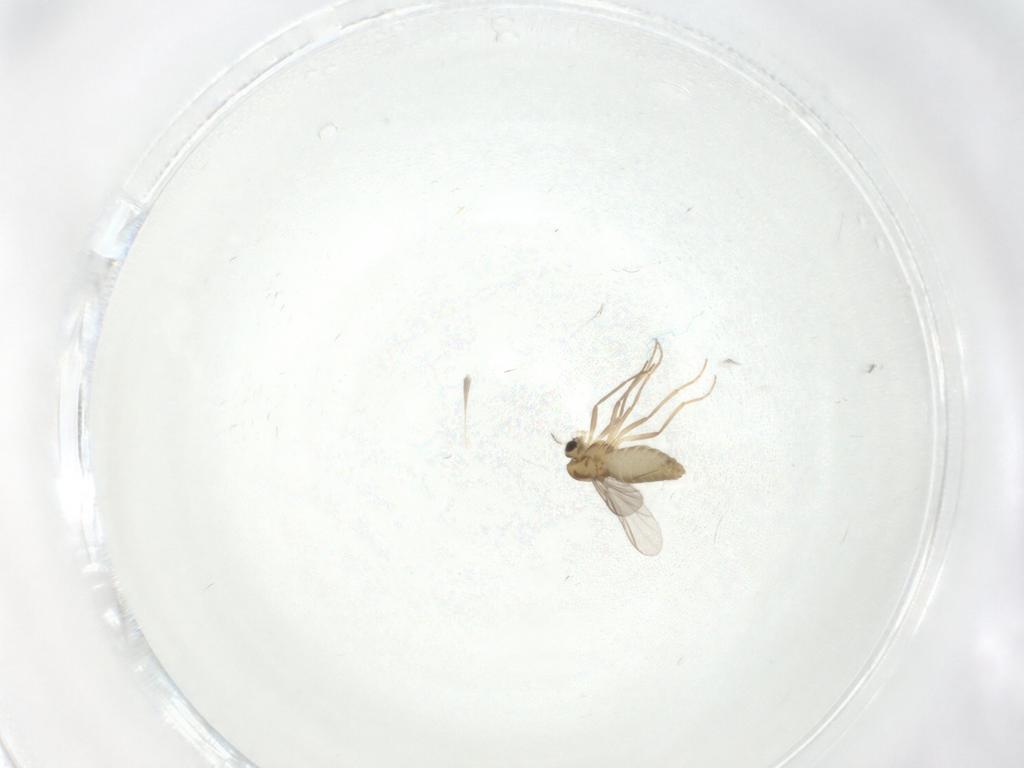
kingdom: Animalia
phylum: Arthropoda
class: Insecta
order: Diptera
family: Chironomidae
